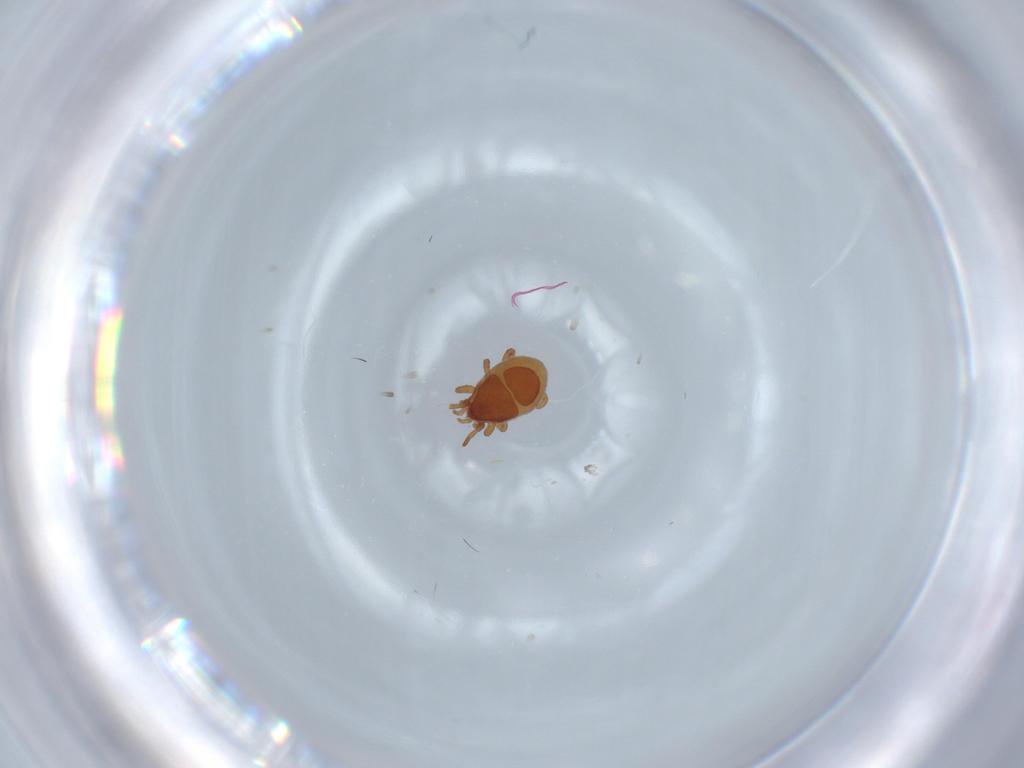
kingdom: Animalia
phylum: Arthropoda
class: Arachnida
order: Mesostigmata
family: Parasitidae
